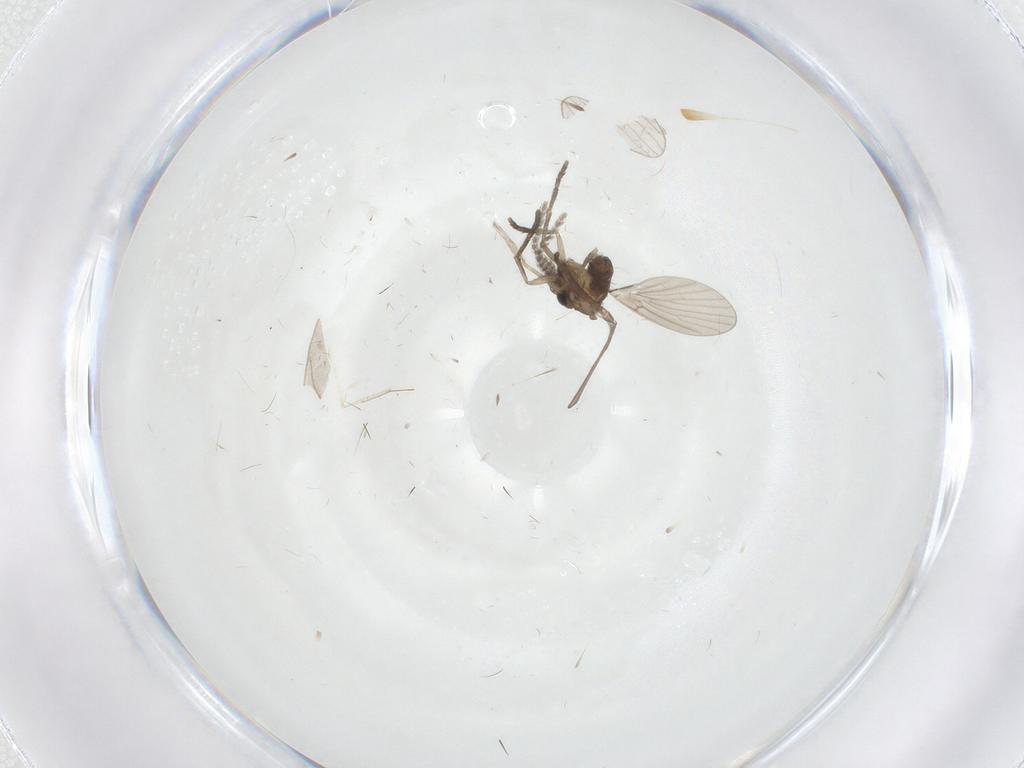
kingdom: Animalia
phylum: Arthropoda
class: Insecta
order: Diptera
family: Cecidomyiidae
